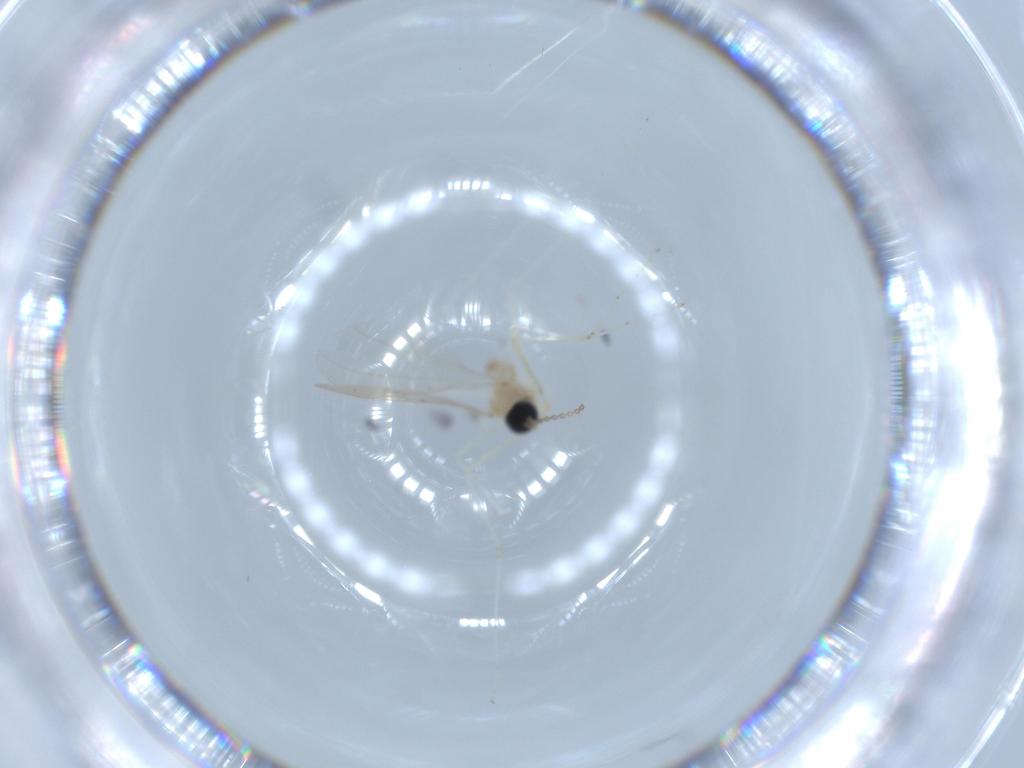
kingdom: Animalia
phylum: Arthropoda
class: Insecta
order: Diptera
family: Cecidomyiidae
